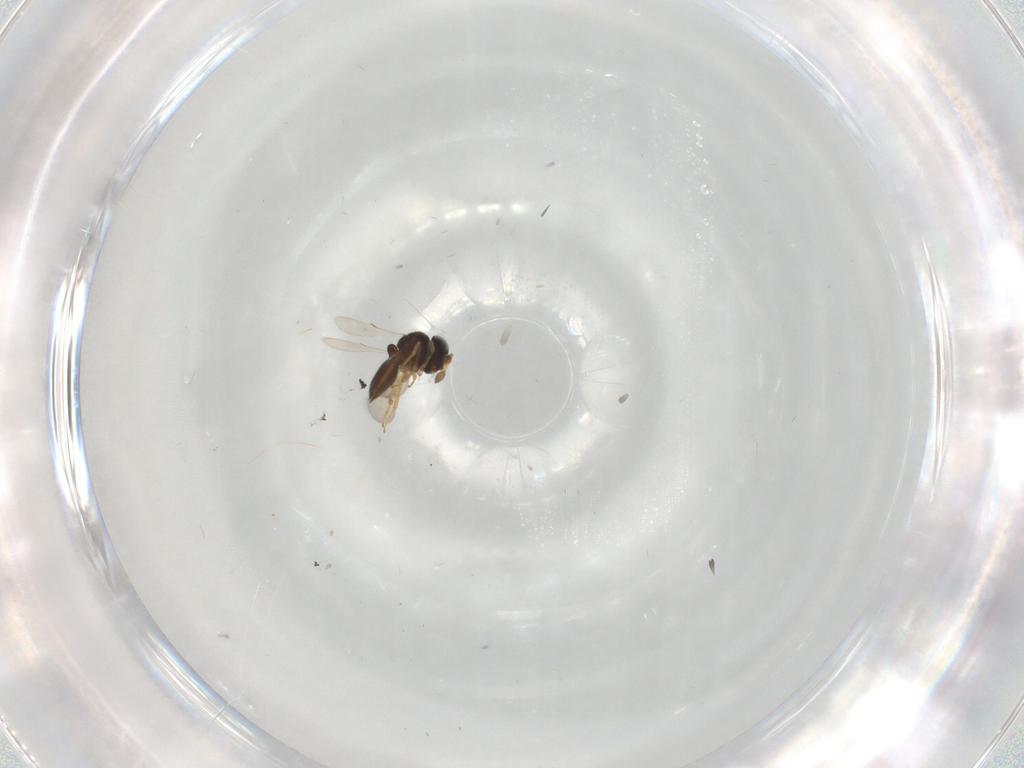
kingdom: Animalia
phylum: Arthropoda
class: Insecta
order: Hymenoptera
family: Scelionidae
